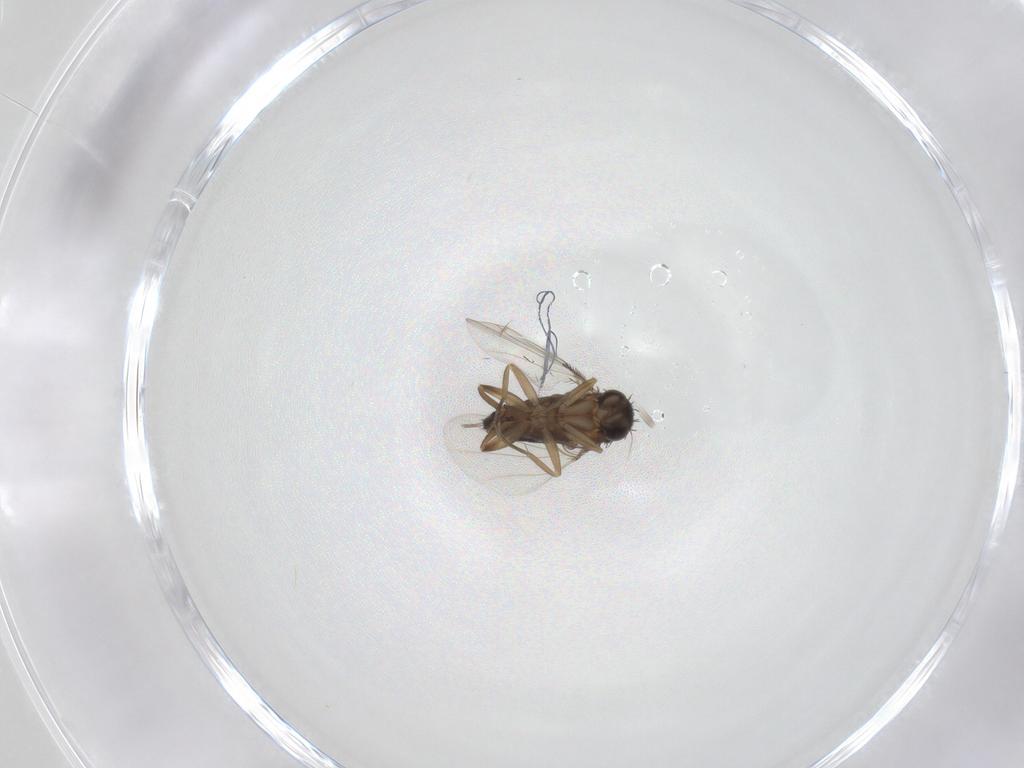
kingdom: Animalia
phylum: Arthropoda
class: Insecta
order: Diptera
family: Phoridae
